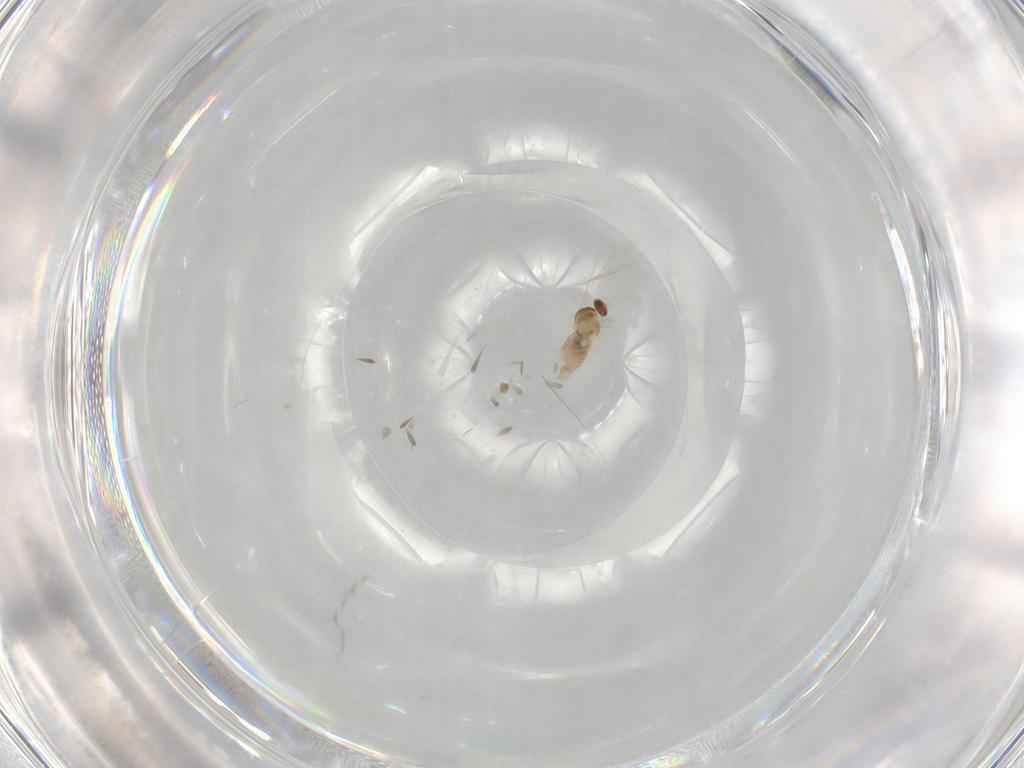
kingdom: Animalia
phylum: Arthropoda
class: Insecta
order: Diptera
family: Cecidomyiidae
